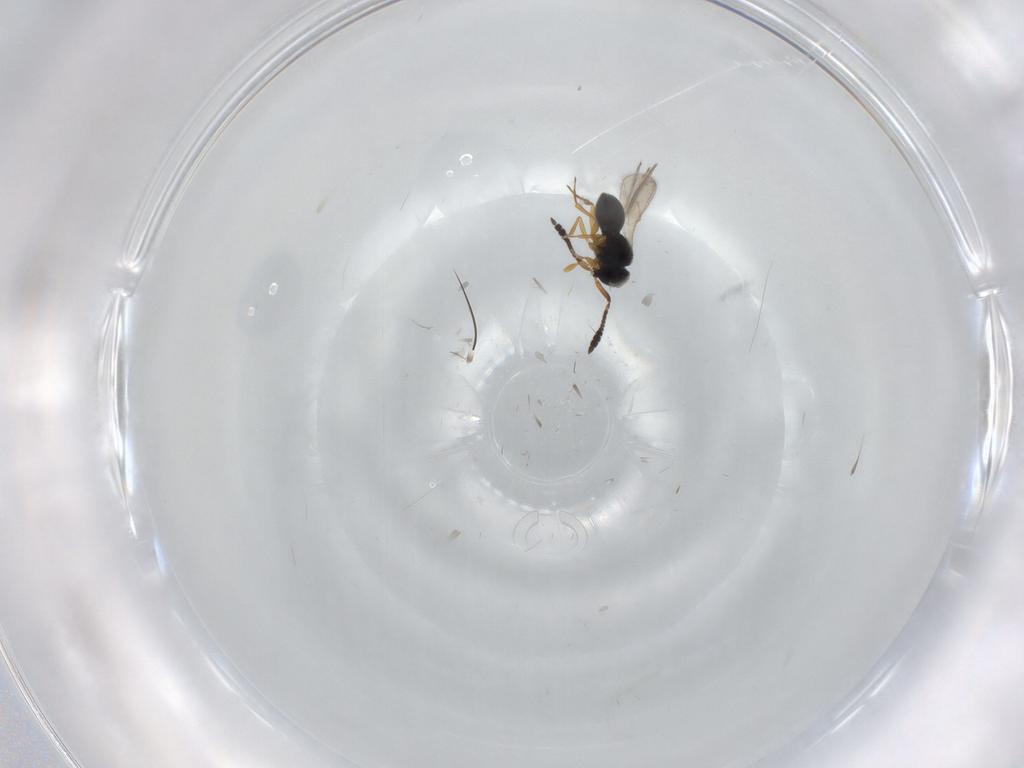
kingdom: Animalia
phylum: Arthropoda
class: Insecta
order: Hymenoptera
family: Scelionidae
